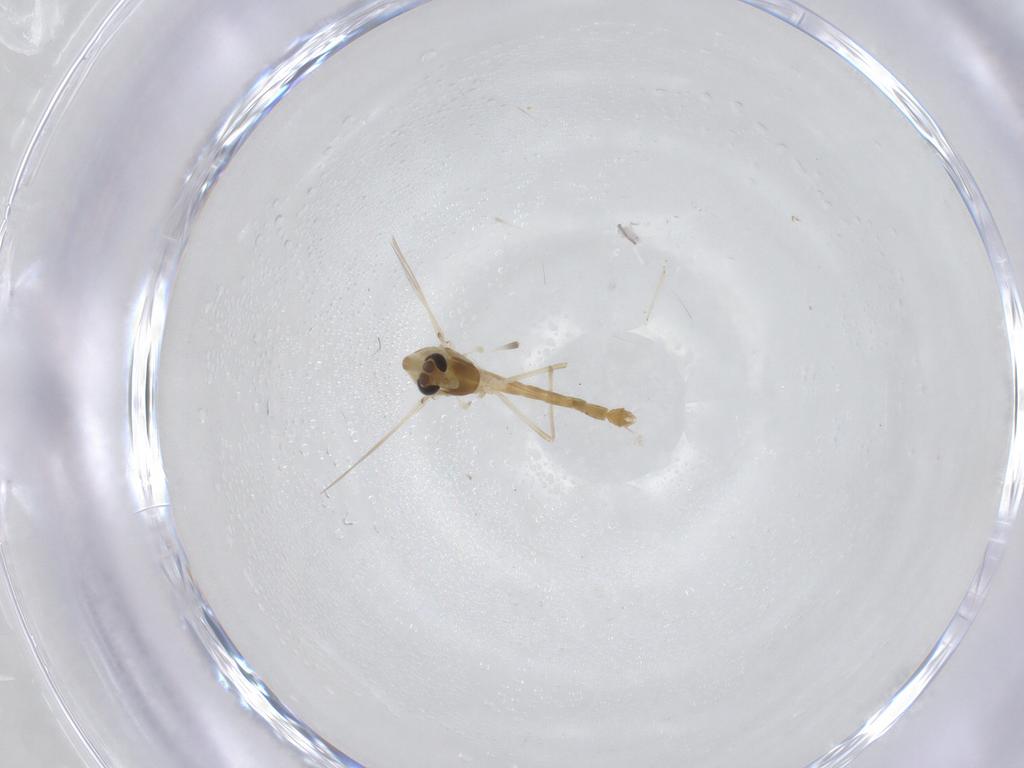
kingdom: Animalia
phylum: Arthropoda
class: Insecta
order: Diptera
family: Chironomidae
